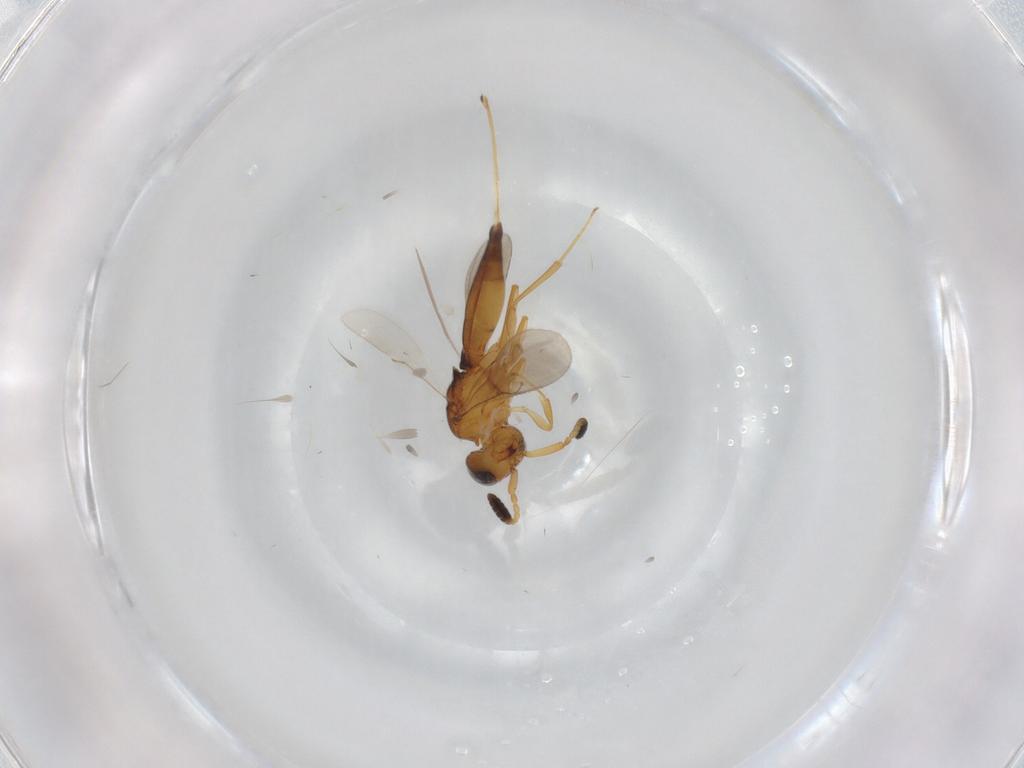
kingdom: Animalia
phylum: Arthropoda
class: Insecta
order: Hymenoptera
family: Scelionidae
